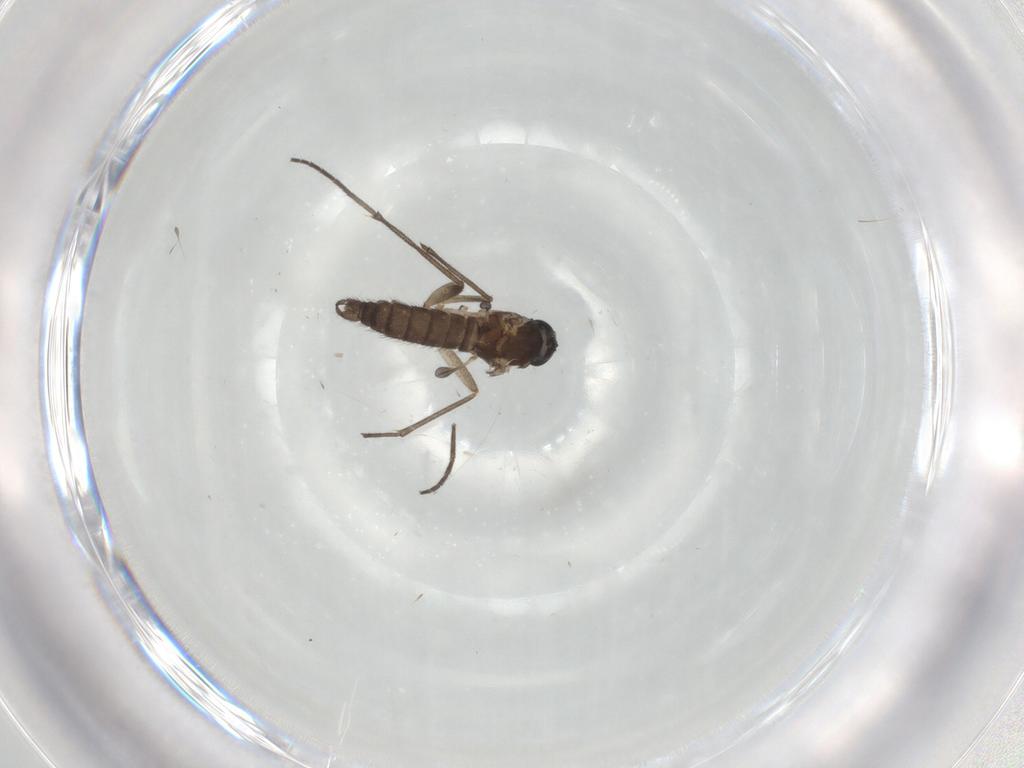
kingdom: Animalia
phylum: Arthropoda
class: Insecta
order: Diptera
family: Sciaridae
